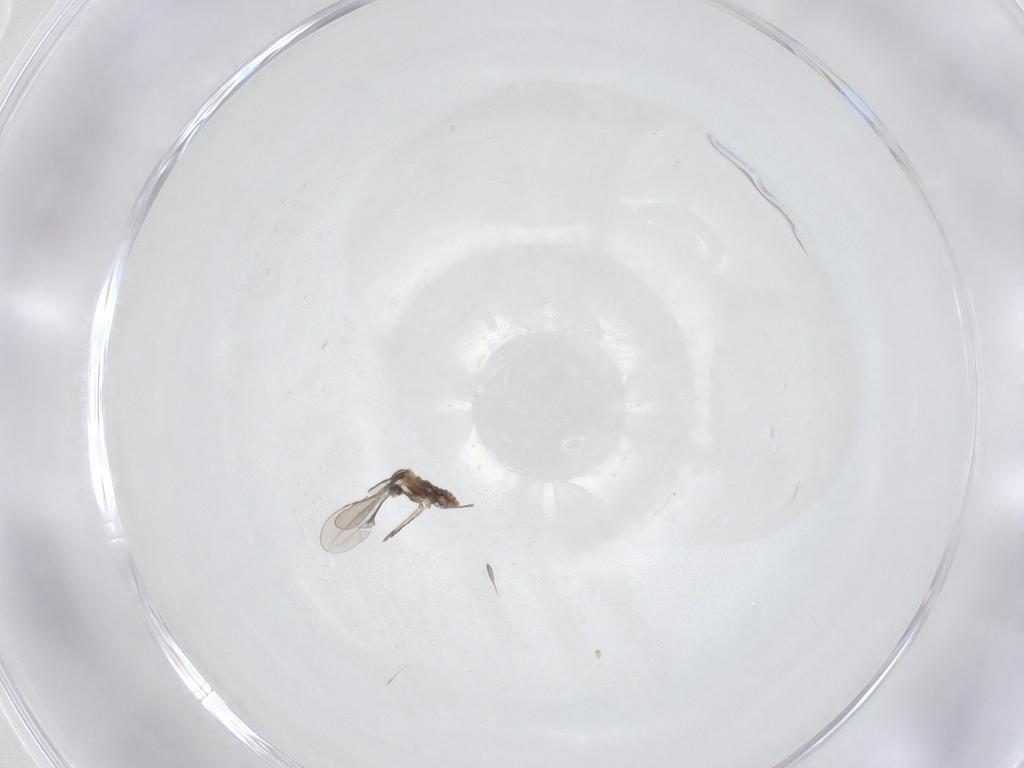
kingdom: Animalia
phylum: Arthropoda
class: Insecta
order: Diptera
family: Cecidomyiidae
